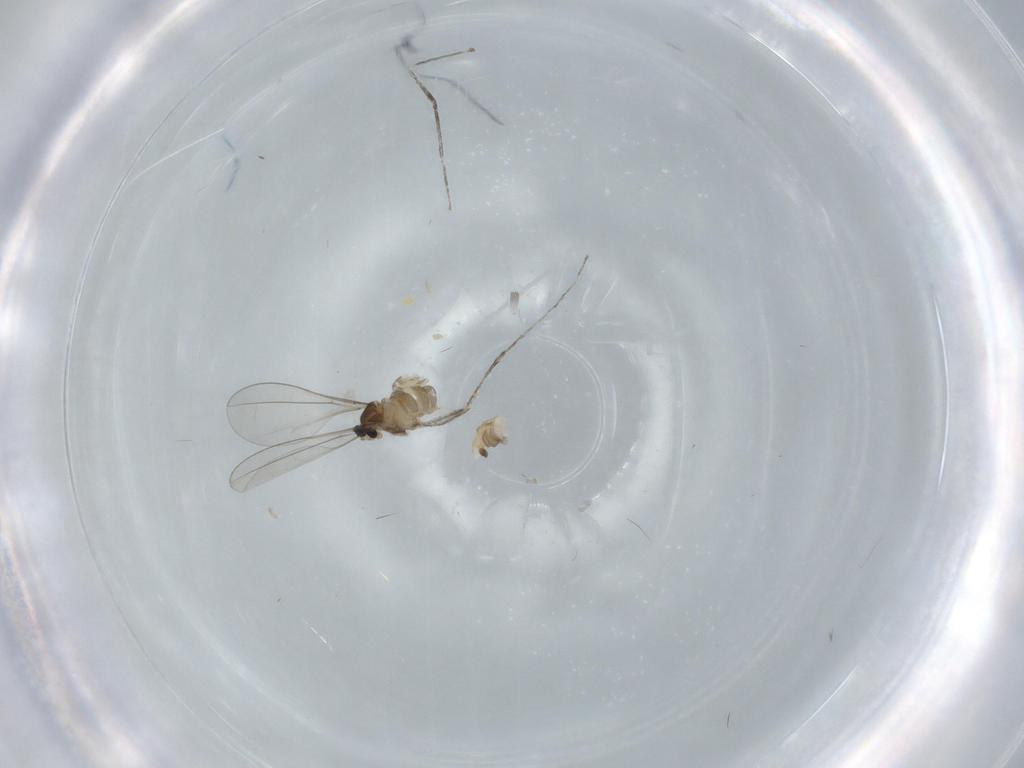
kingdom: Animalia
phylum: Arthropoda
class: Insecta
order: Diptera
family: Cecidomyiidae
